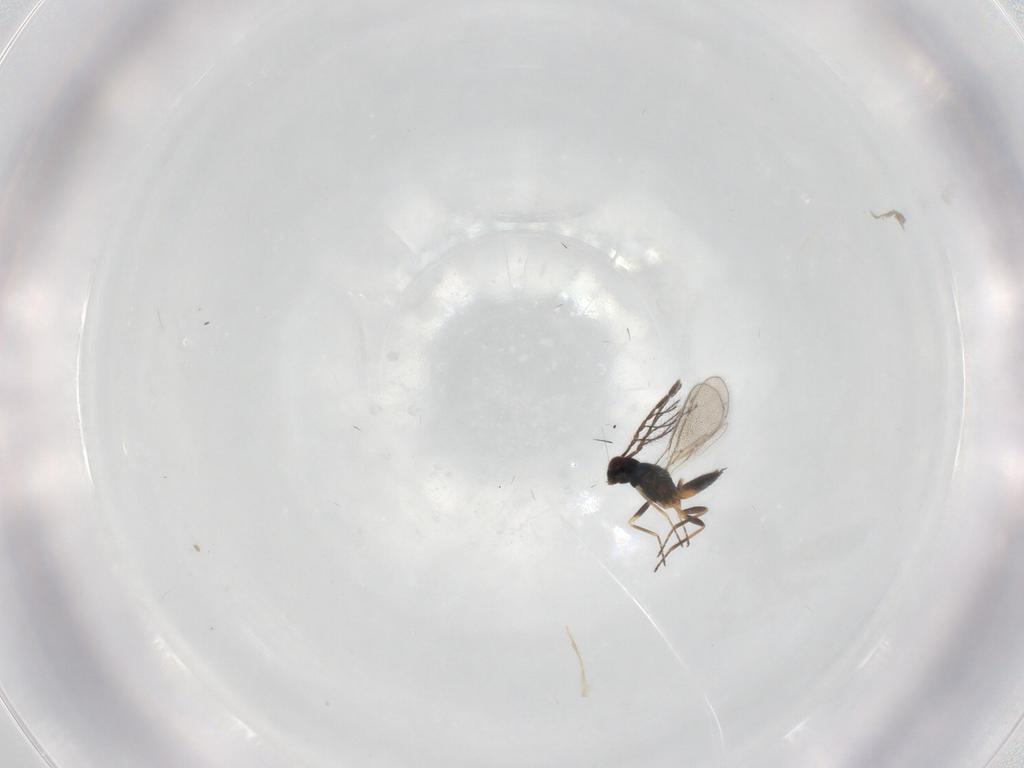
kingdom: Animalia
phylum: Arthropoda
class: Insecta
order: Hymenoptera
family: Eulophidae
